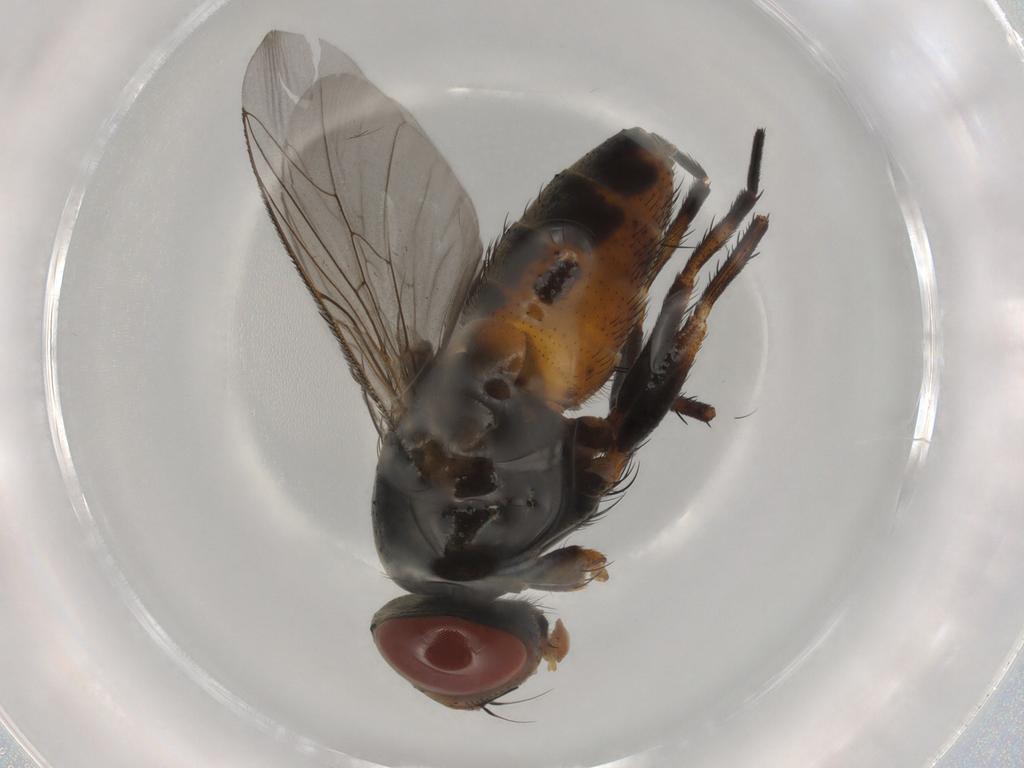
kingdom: Animalia
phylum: Arthropoda
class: Insecta
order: Diptera
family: Sarcophagidae
